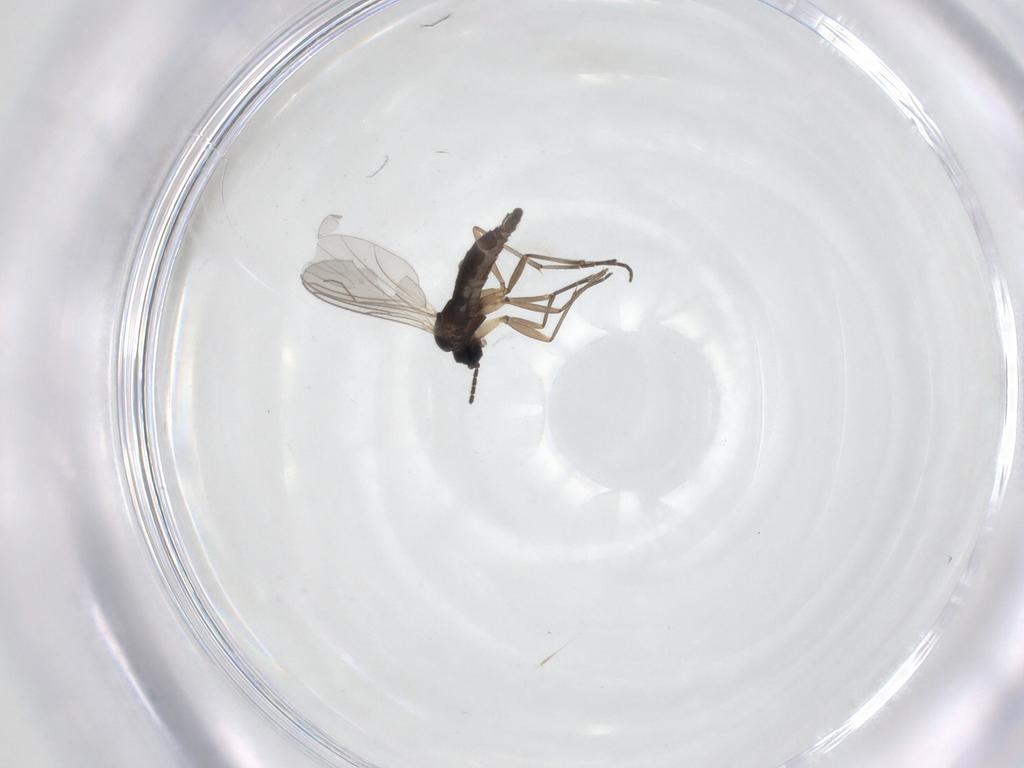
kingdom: Animalia
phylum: Arthropoda
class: Insecta
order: Diptera
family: Sciaridae
